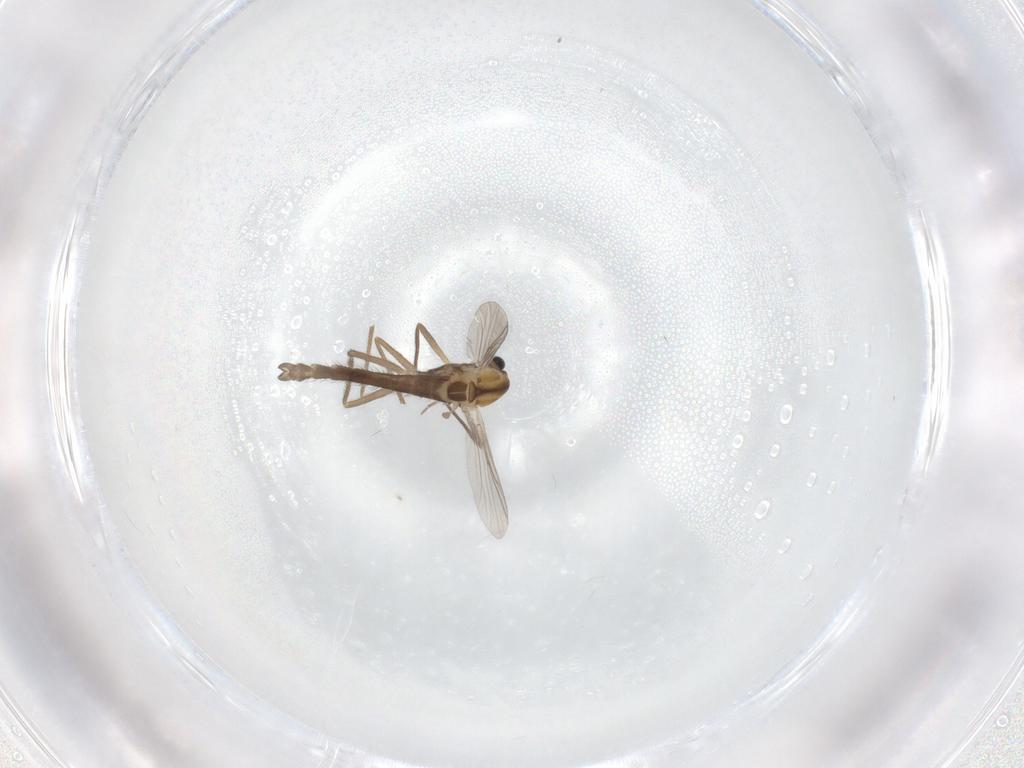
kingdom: Animalia
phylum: Arthropoda
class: Insecta
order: Diptera
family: Chironomidae
